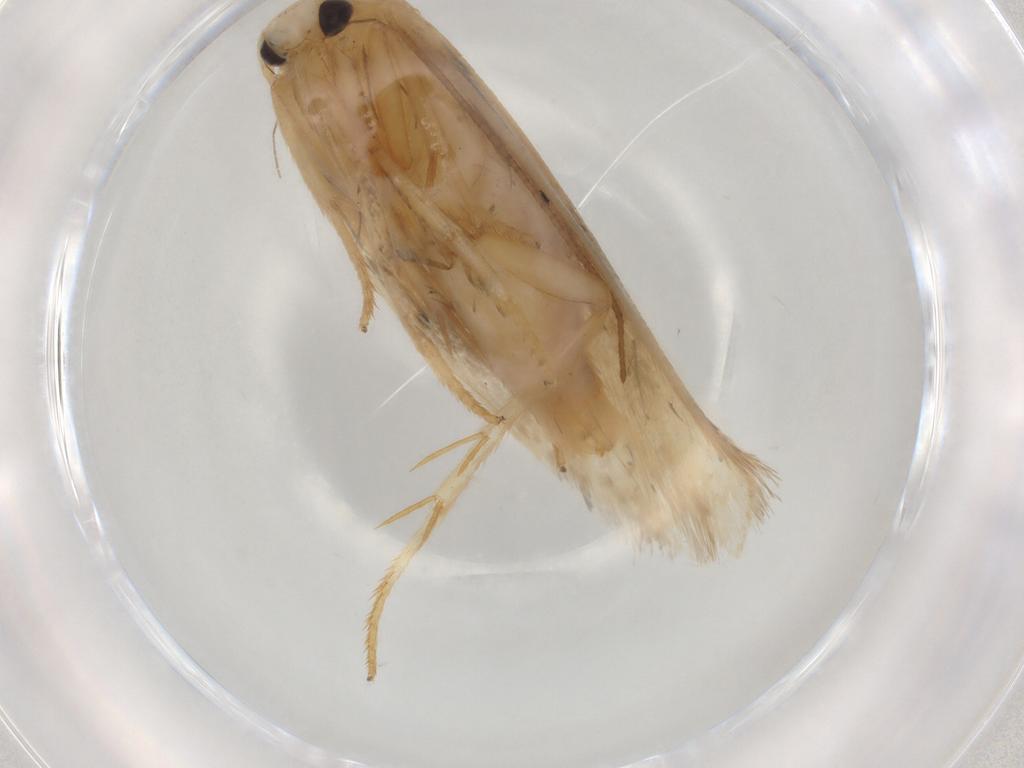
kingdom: Animalia
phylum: Arthropoda
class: Insecta
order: Lepidoptera
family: Geometridae
